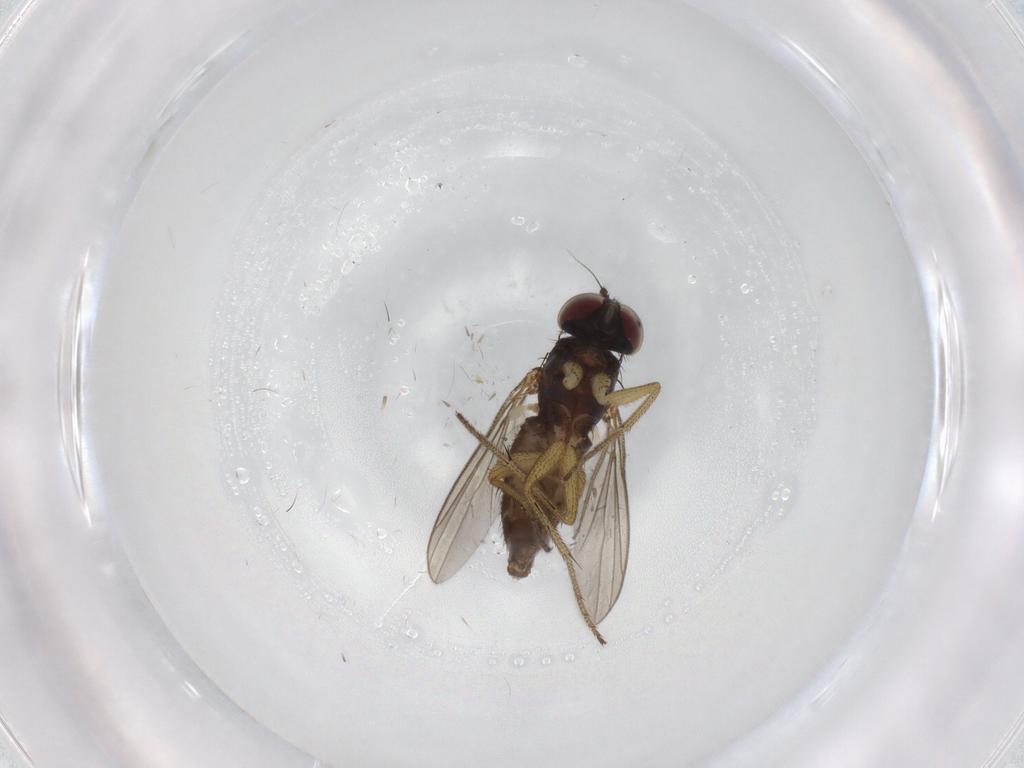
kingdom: Animalia
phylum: Arthropoda
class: Insecta
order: Diptera
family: Chironomidae
